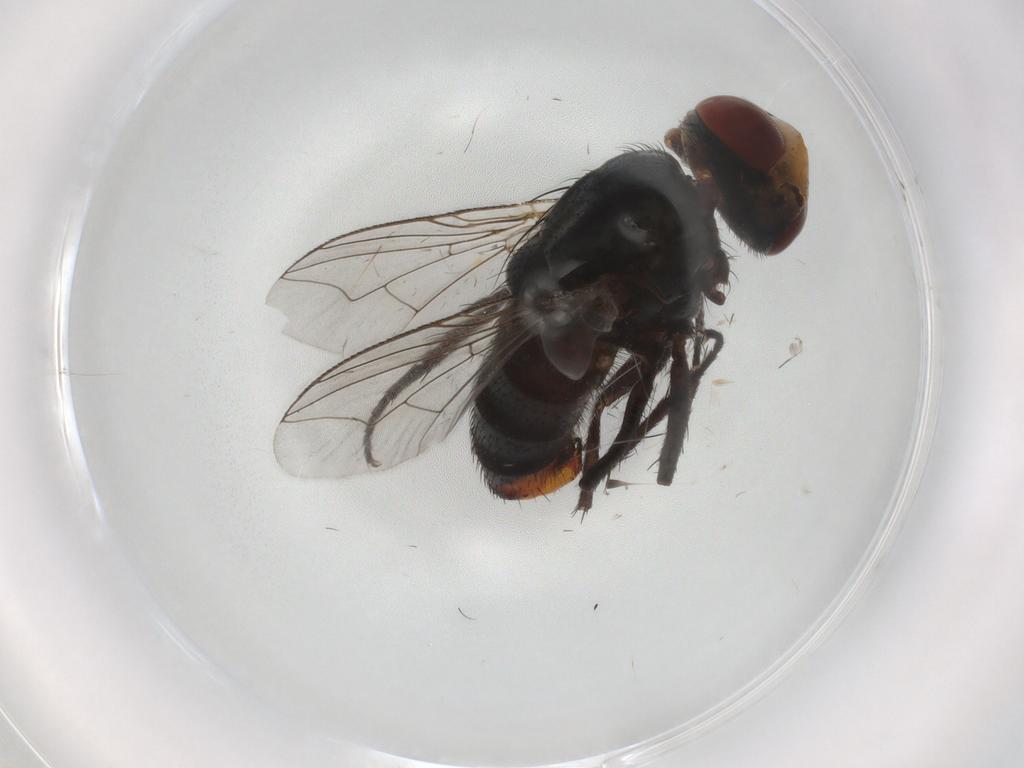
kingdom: Animalia
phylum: Arthropoda
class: Insecta
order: Diptera
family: Sarcophagidae
